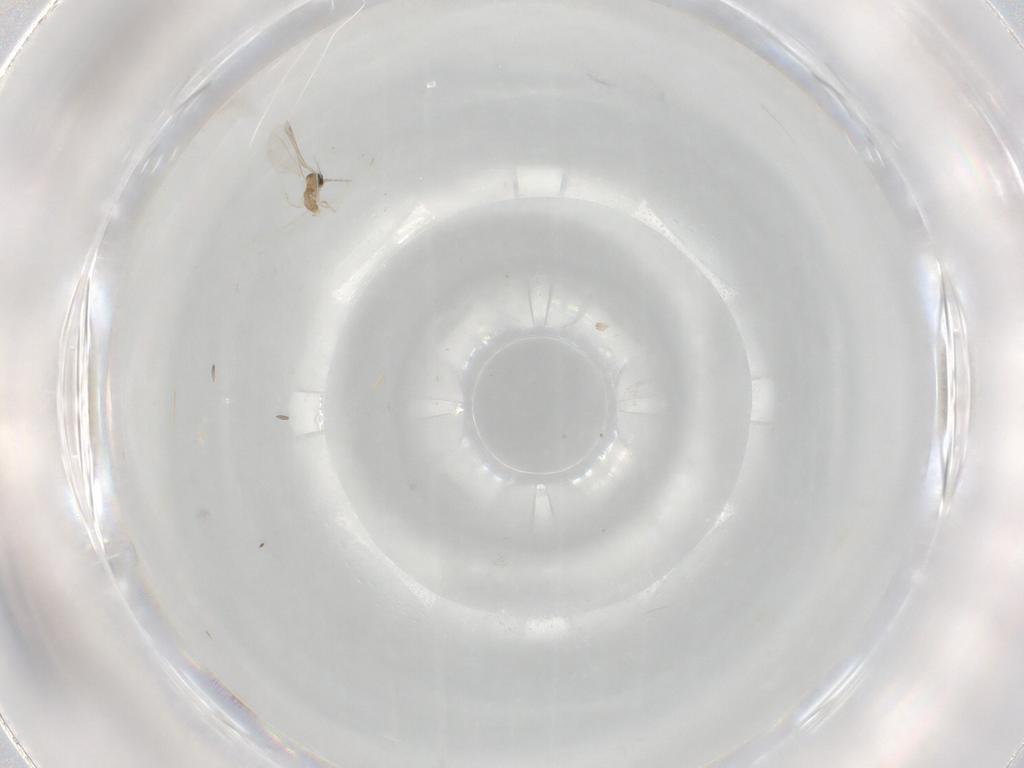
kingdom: Animalia
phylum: Arthropoda
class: Insecta
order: Diptera
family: Cecidomyiidae
